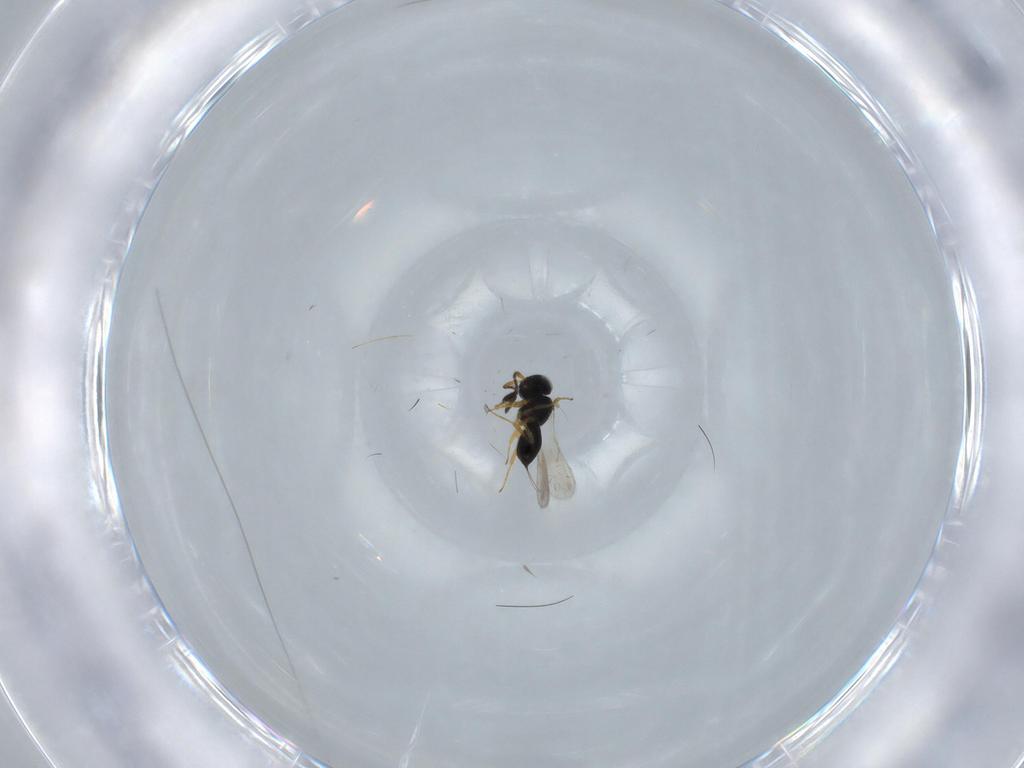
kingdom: Animalia
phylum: Arthropoda
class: Insecta
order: Hymenoptera
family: Scelionidae
